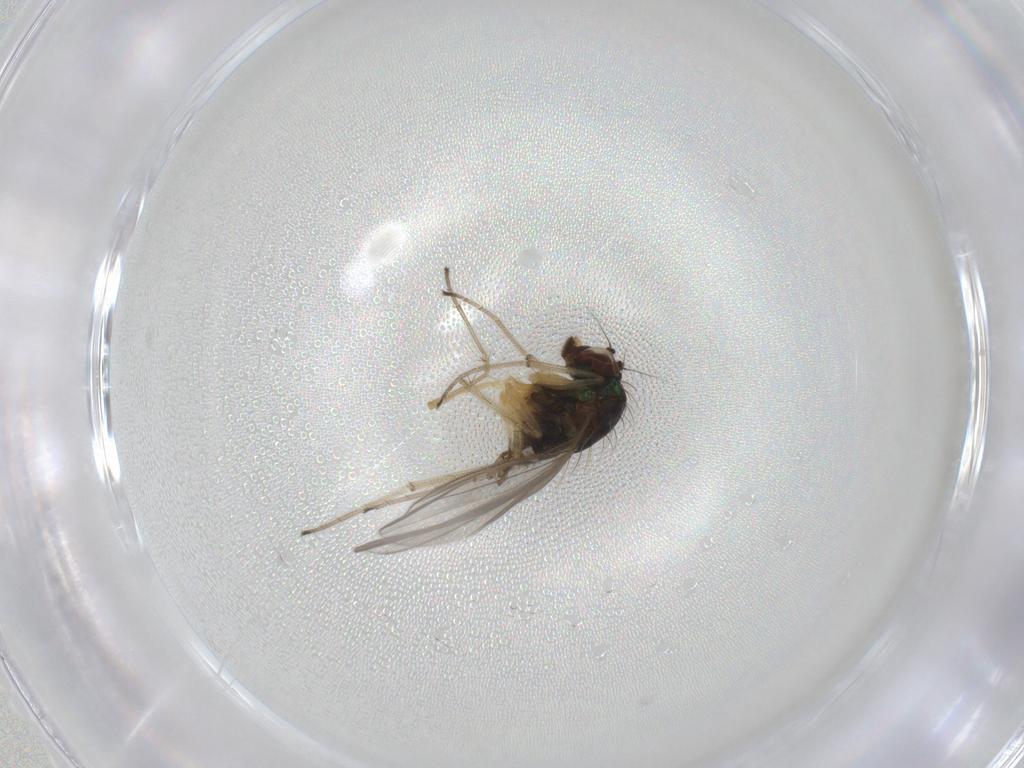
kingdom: Animalia
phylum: Arthropoda
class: Insecta
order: Diptera
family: Dolichopodidae
